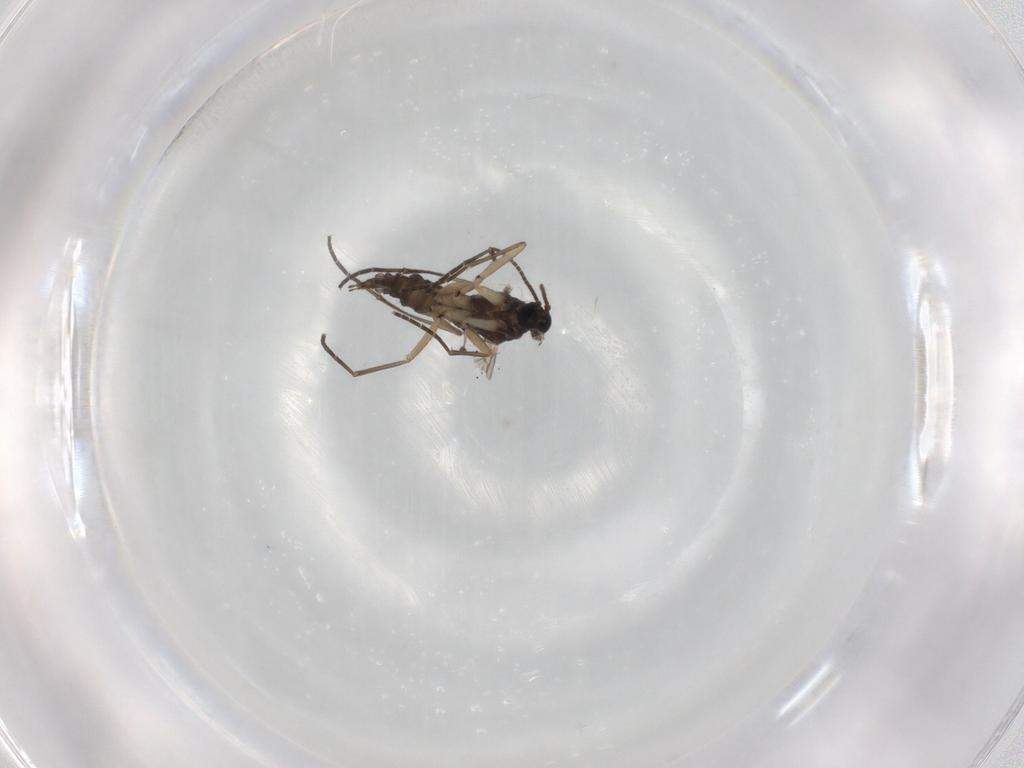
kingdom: Animalia
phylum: Arthropoda
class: Insecta
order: Diptera
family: Sciaridae
